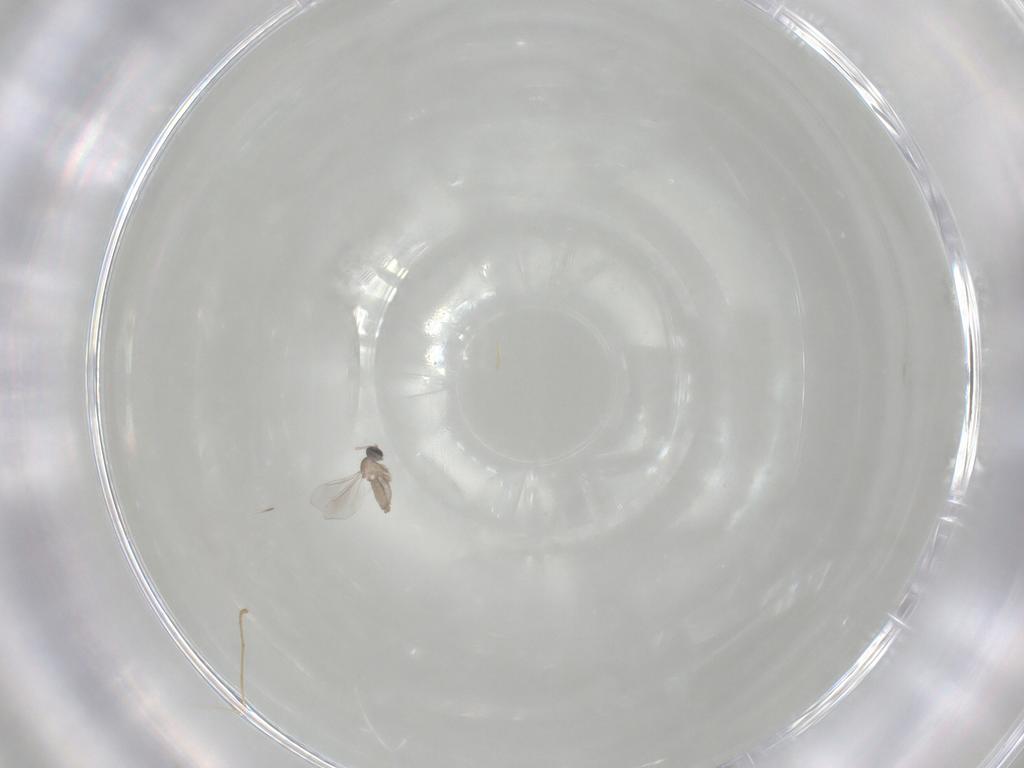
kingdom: Animalia
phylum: Arthropoda
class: Insecta
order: Diptera
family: Limoniidae
